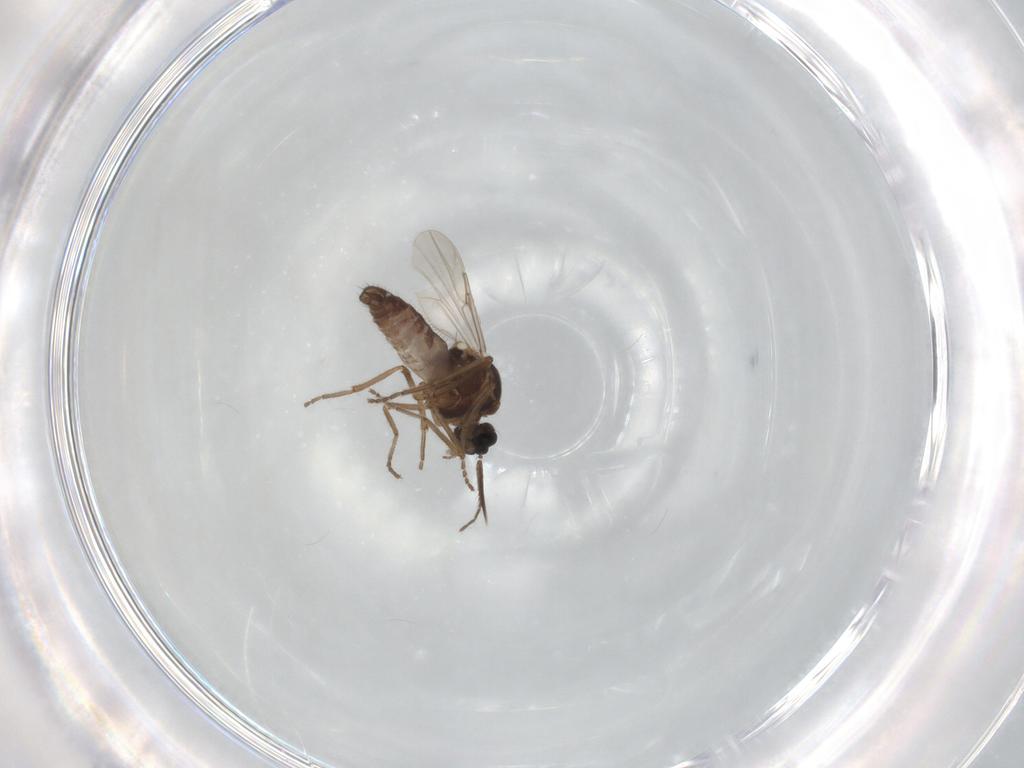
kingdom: Animalia
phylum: Arthropoda
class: Insecta
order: Diptera
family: Ceratopogonidae
